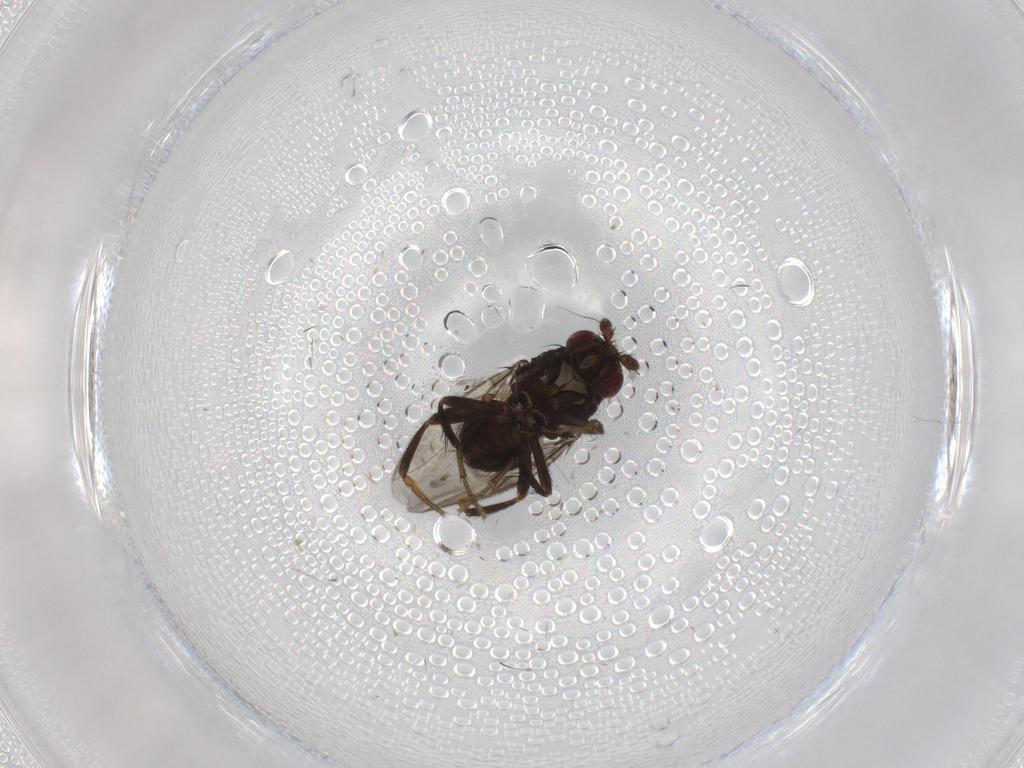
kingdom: Animalia
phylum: Arthropoda
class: Insecta
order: Diptera
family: Sphaeroceridae
